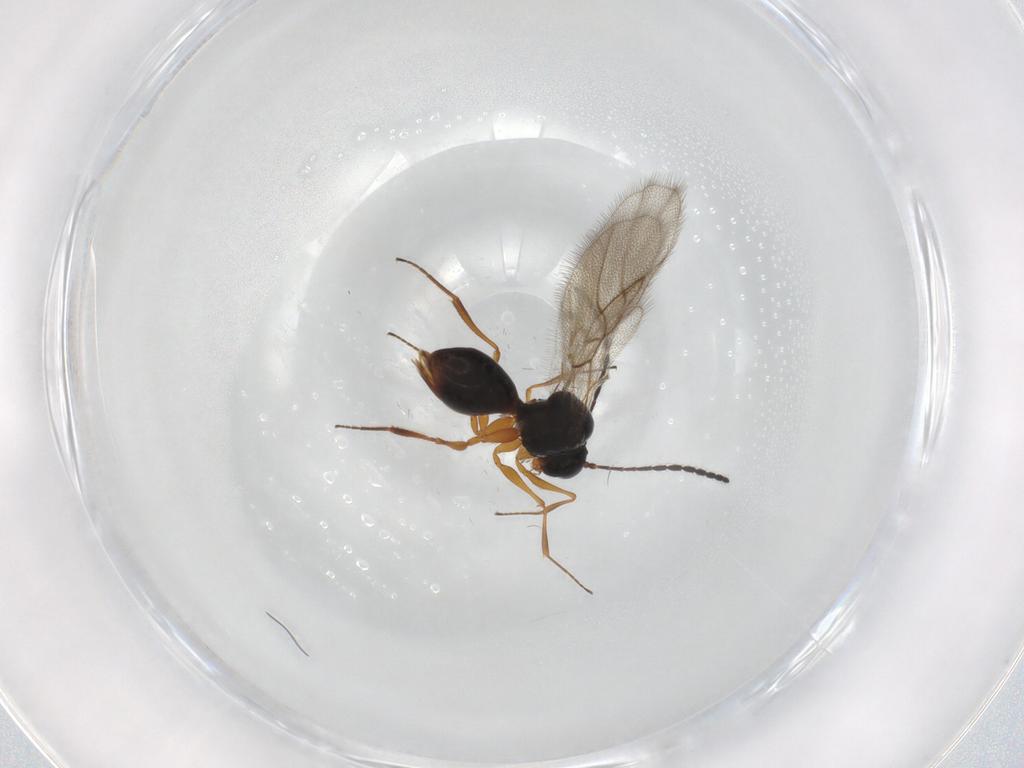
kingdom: Animalia
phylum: Arthropoda
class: Insecta
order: Hymenoptera
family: Figitidae
